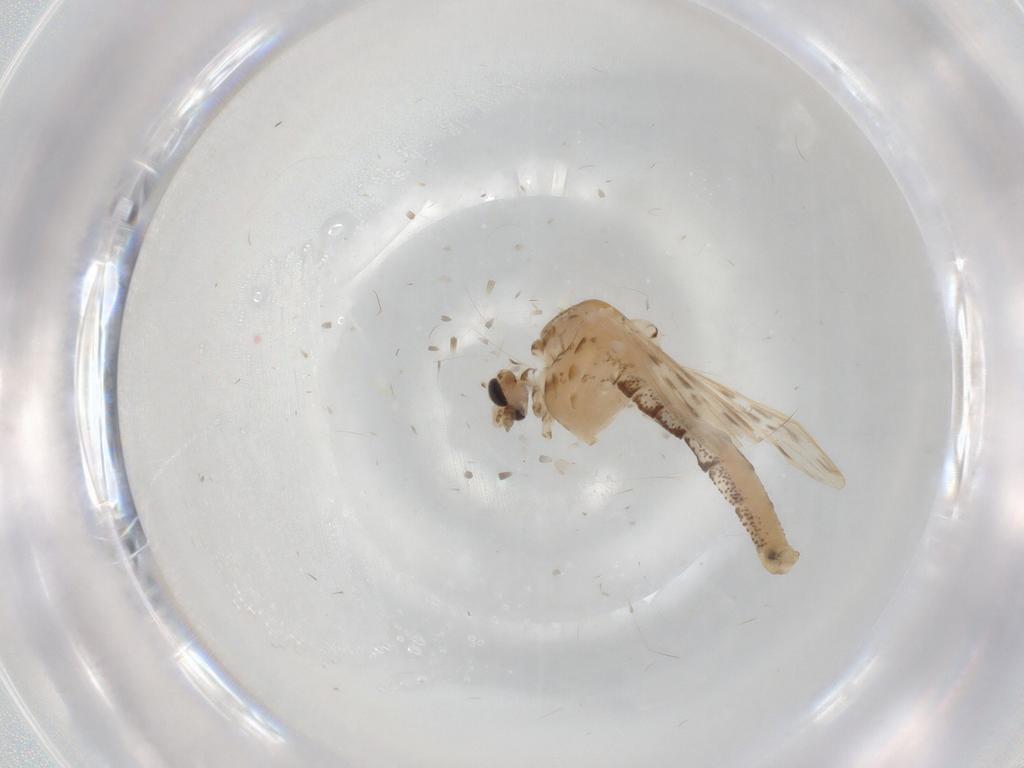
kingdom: Animalia
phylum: Arthropoda
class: Insecta
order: Diptera
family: Chaoboridae
